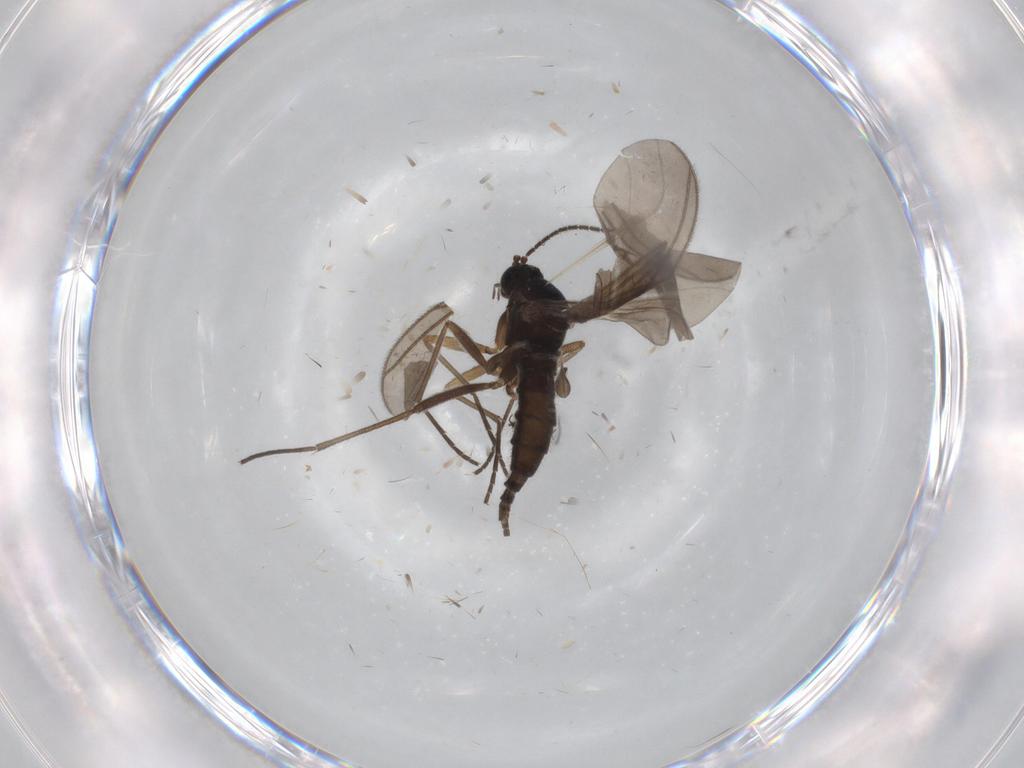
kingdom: Animalia
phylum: Arthropoda
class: Insecta
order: Diptera
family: Sciaridae
